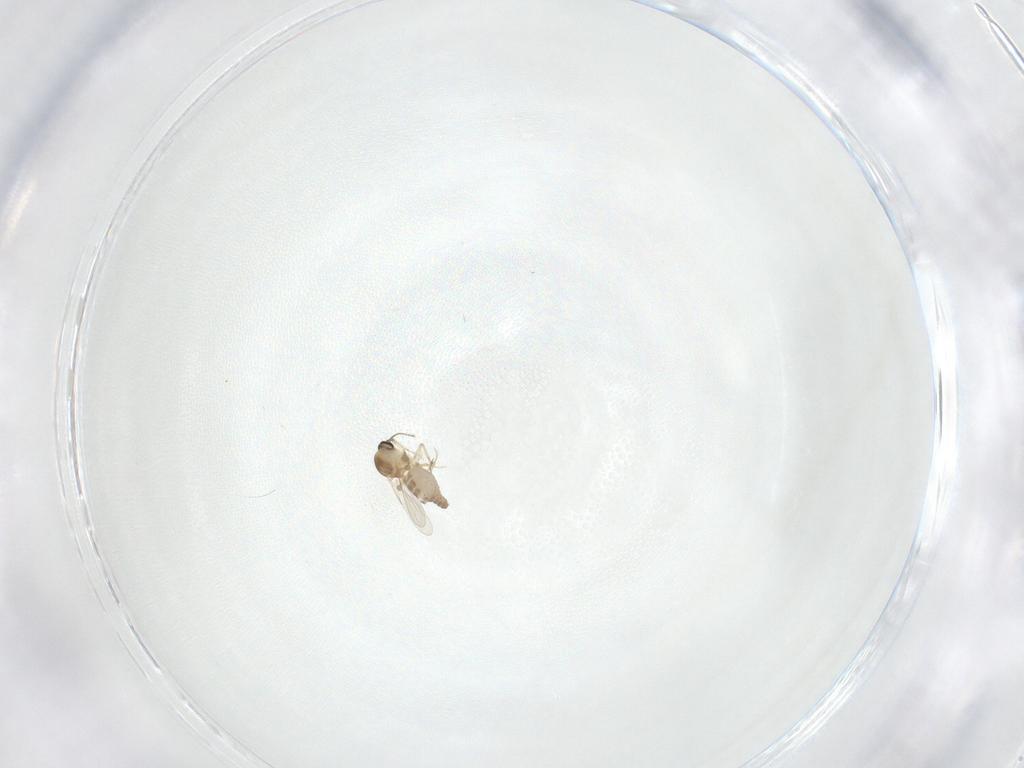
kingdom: Animalia
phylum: Arthropoda
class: Insecta
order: Diptera
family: Ceratopogonidae
